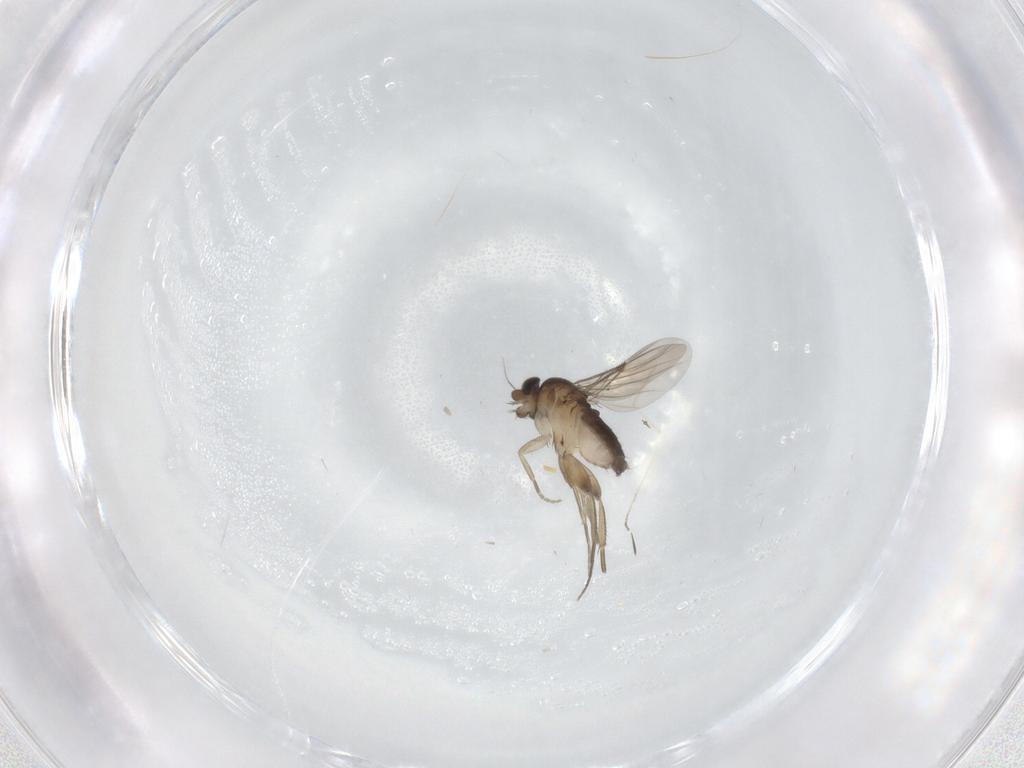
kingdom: Animalia
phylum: Arthropoda
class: Insecta
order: Diptera
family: Phoridae
